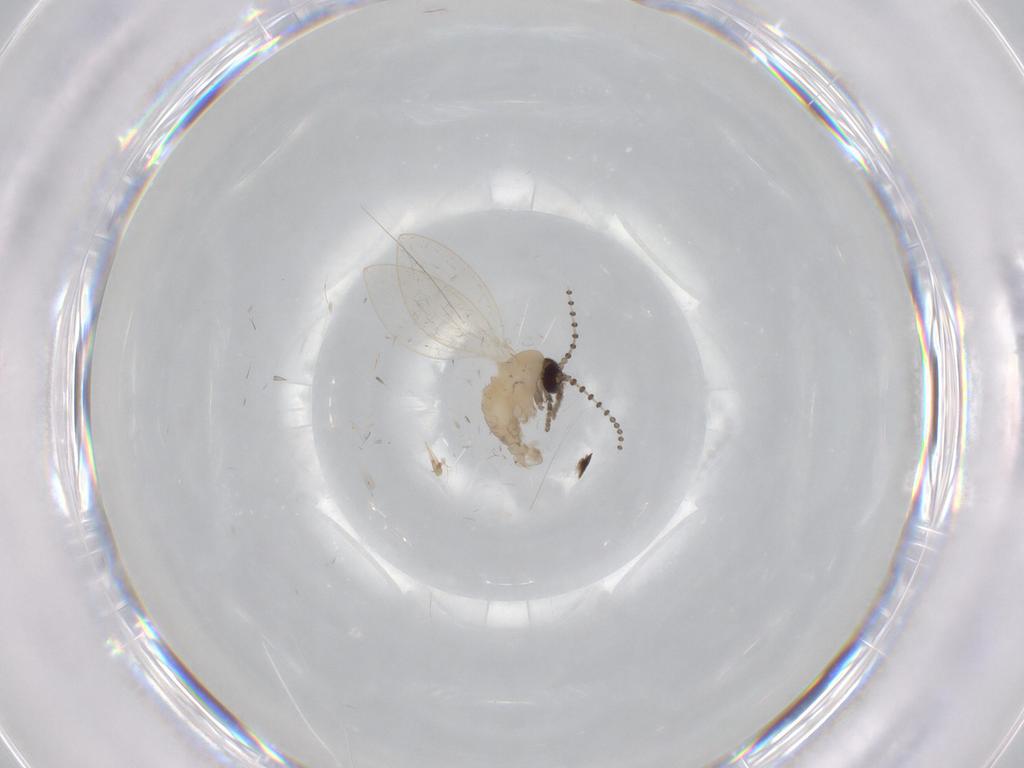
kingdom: Animalia
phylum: Arthropoda
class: Insecta
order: Diptera
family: Psychodidae
